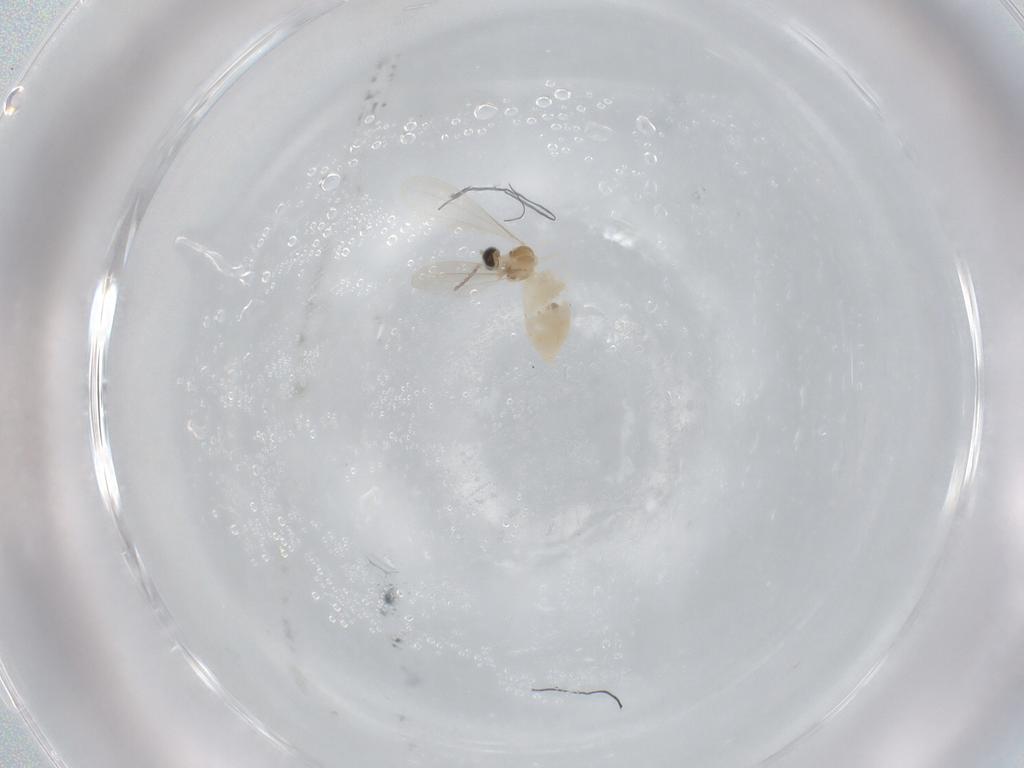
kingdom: Animalia
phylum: Arthropoda
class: Insecta
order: Diptera
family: Cecidomyiidae
